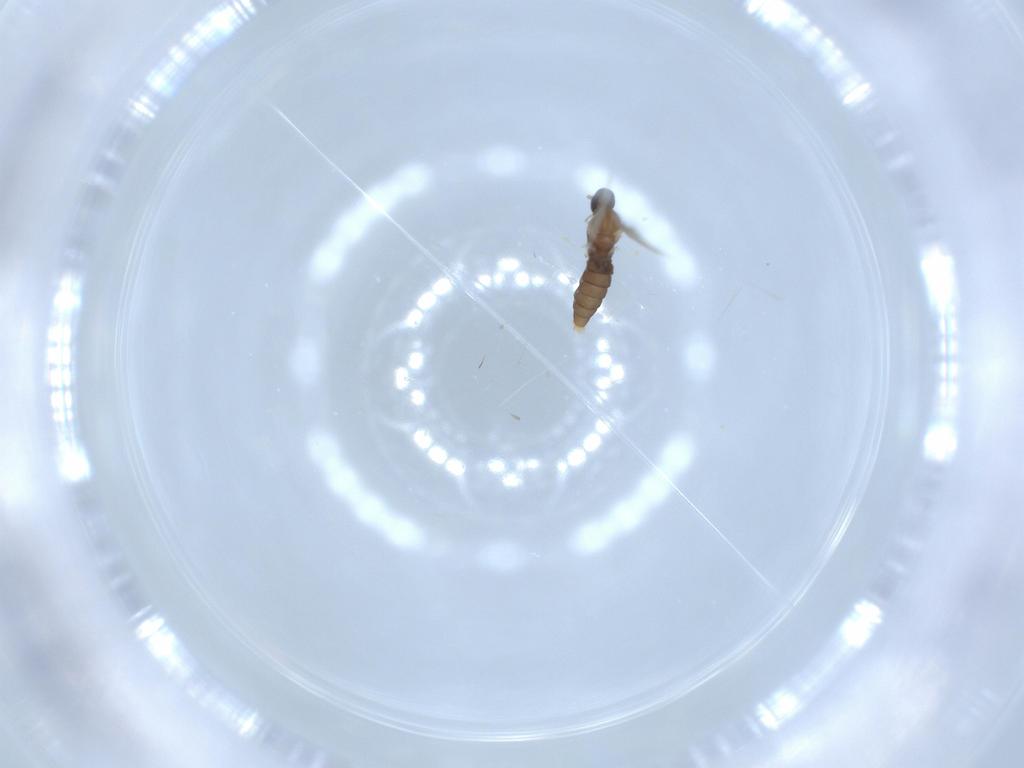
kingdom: Animalia
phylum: Arthropoda
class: Insecta
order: Diptera
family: Cecidomyiidae
